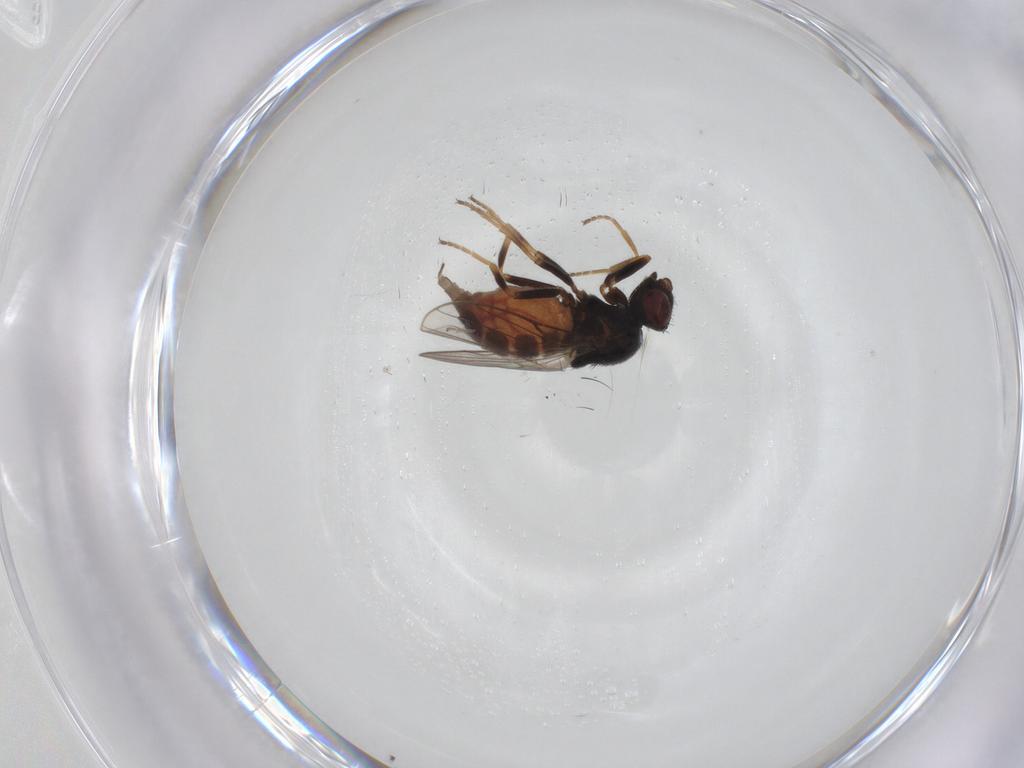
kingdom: Animalia
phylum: Arthropoda
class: Insecta
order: Diptera
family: Chloropidae
